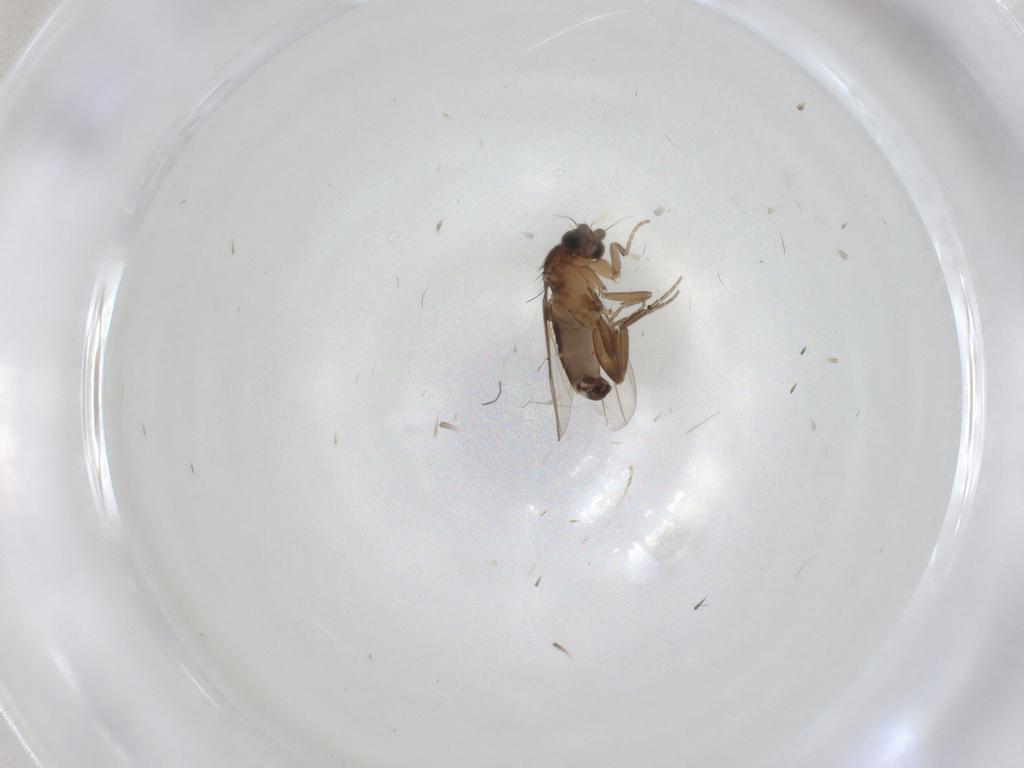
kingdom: Animalia
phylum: Arthropoda
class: Insecta
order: Diptera
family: Phoridae
